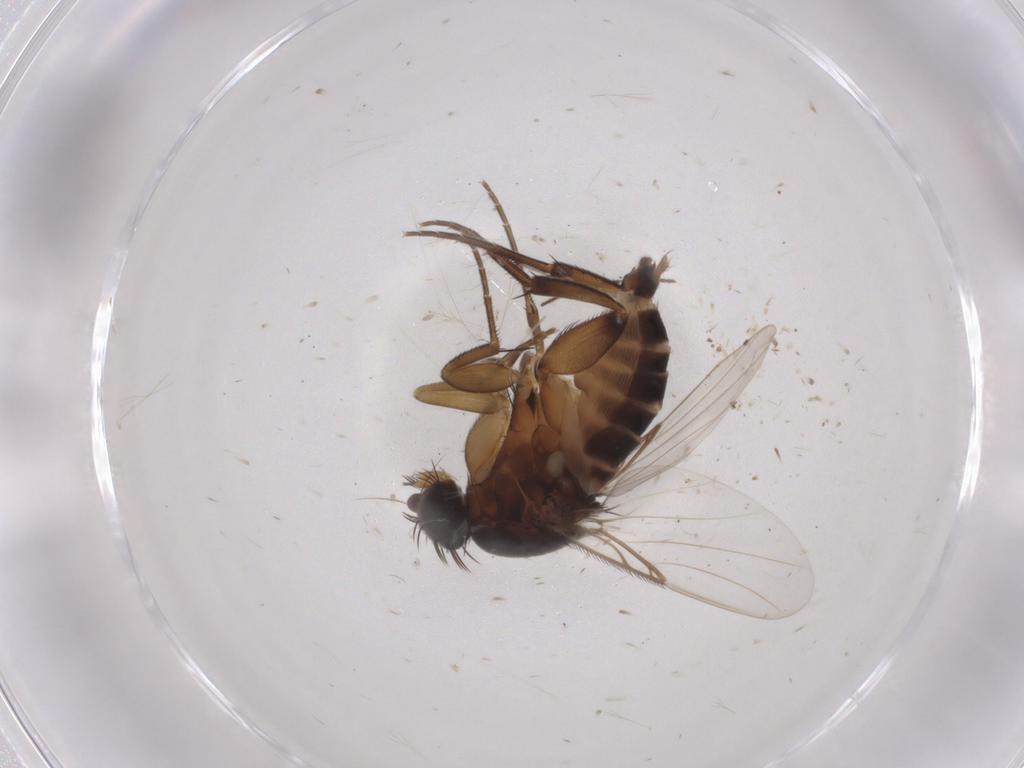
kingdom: Animalia
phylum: Arthropoda
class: Insecta
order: Diptera
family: Phoridae
